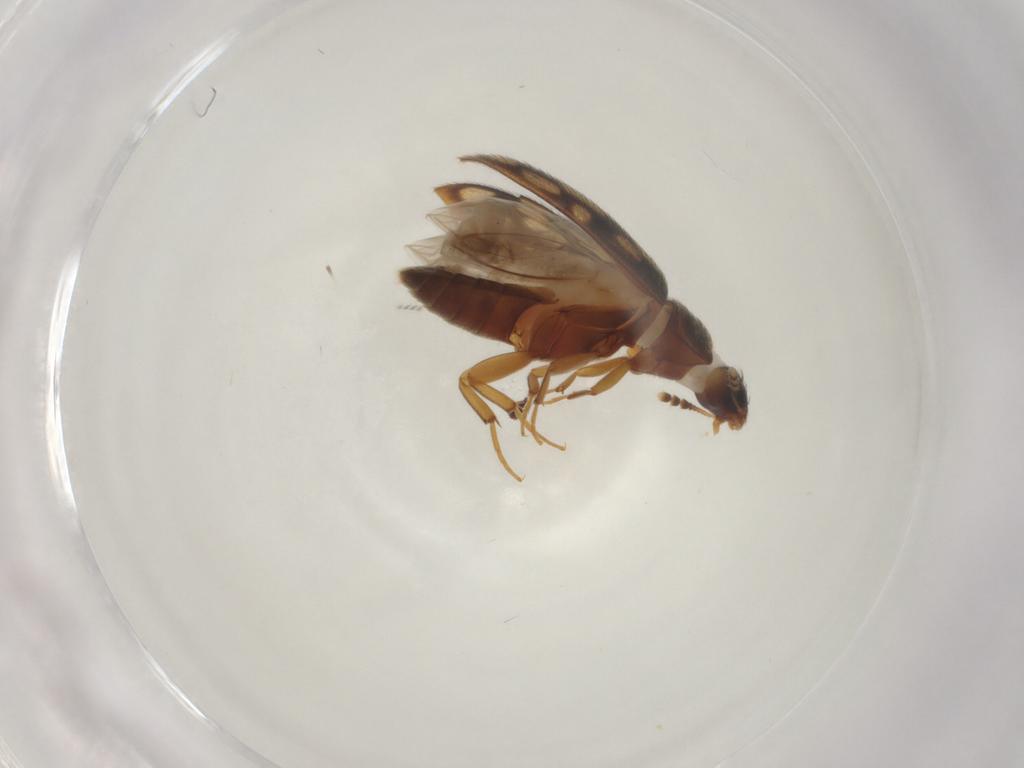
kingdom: Animalia
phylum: Arthropoda
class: Insecta
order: Coleoptera
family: Mycetophagidae
